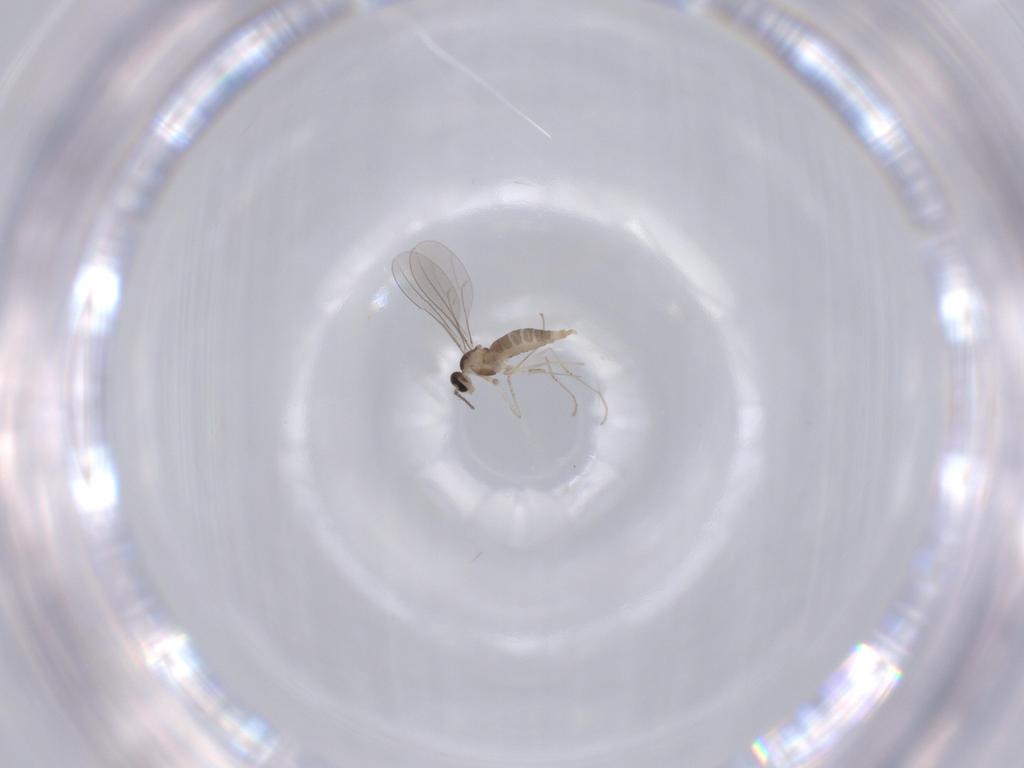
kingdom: Animalia
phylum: Arthropoda
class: Insecta
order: Diptera
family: Cecidomyiidae
